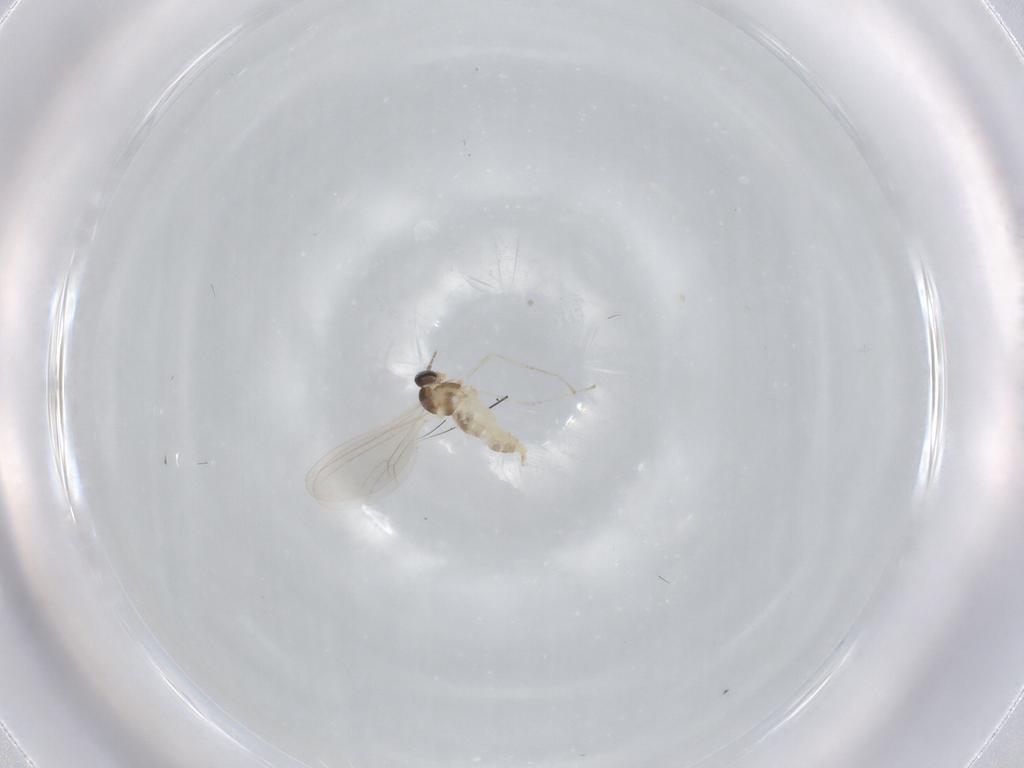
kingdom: Animalia
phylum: Arthropoda
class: Insecta
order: Diptera
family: Cecidomyiidae
